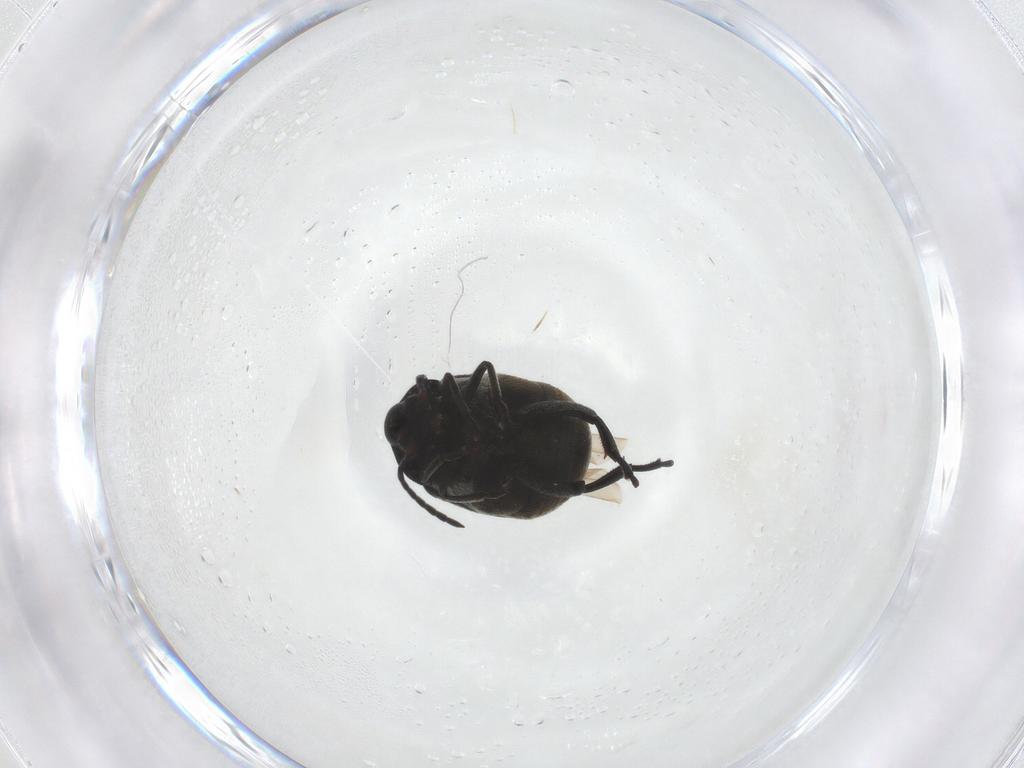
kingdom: Animalia
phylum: Arthropoda
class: Insecta
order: Coleoptera
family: Chrysomelidae
